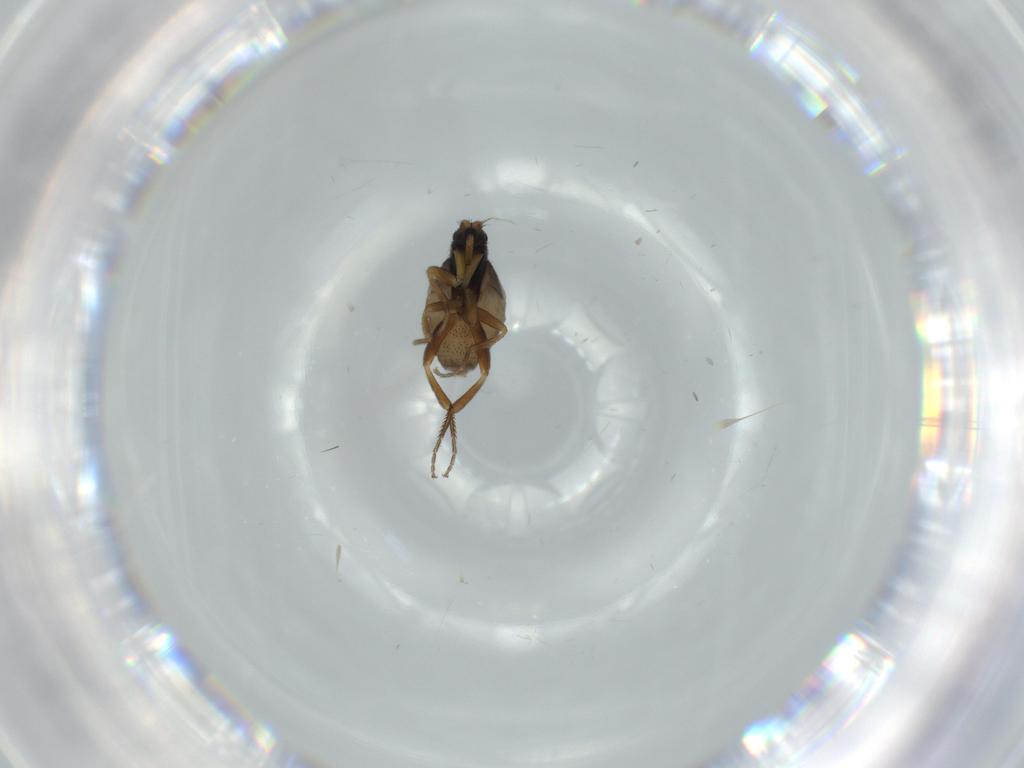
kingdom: Animalia
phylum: Arthropoda
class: Insecta
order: Diptera
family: Phoridae
